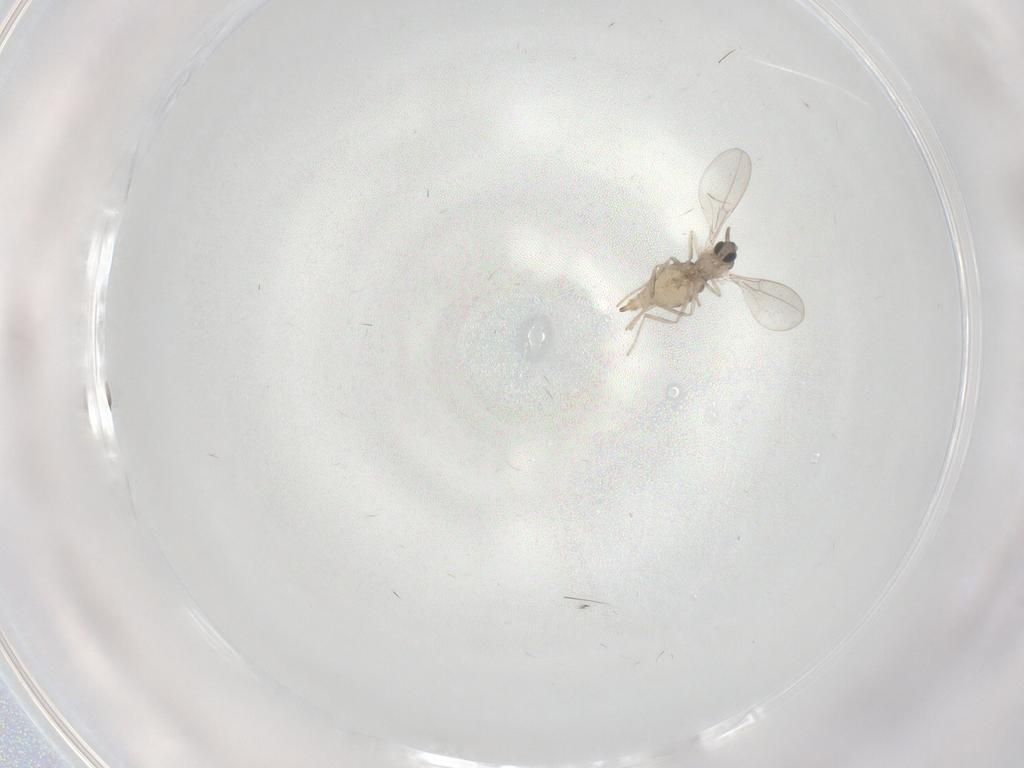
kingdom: Animalia
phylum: Arthropoda
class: Insecta
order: Diptera
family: Cecidomyiidae
